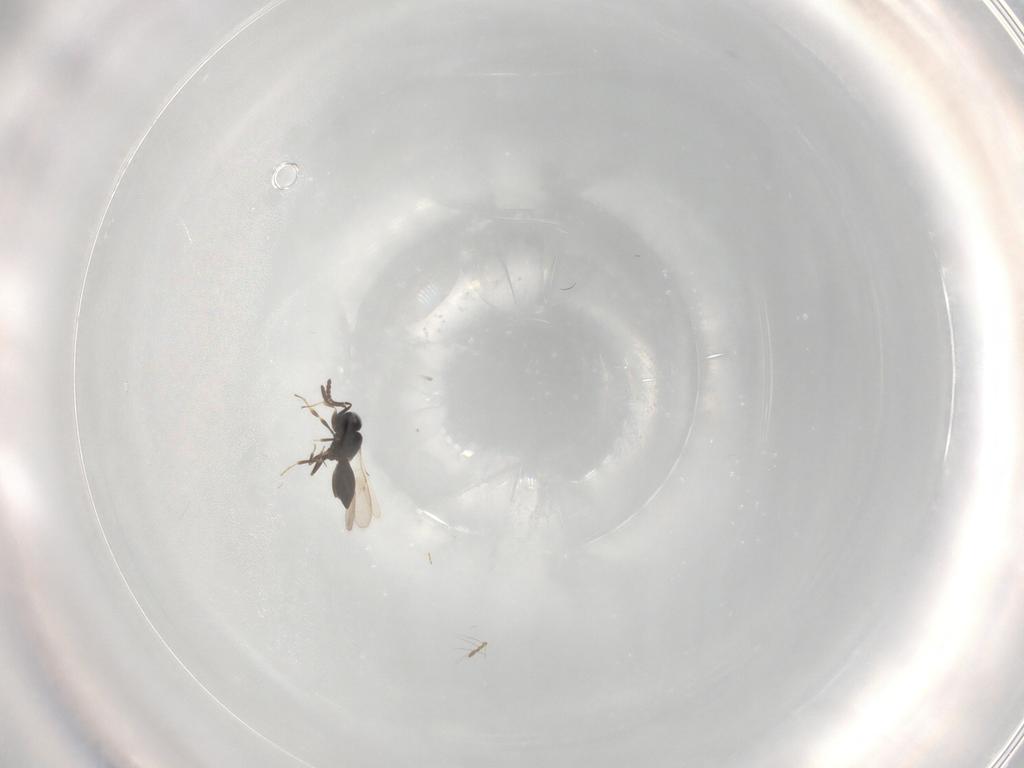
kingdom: Animalia
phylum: Arthropoda
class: Insecta
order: Hymenoptera
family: Scelionidae
